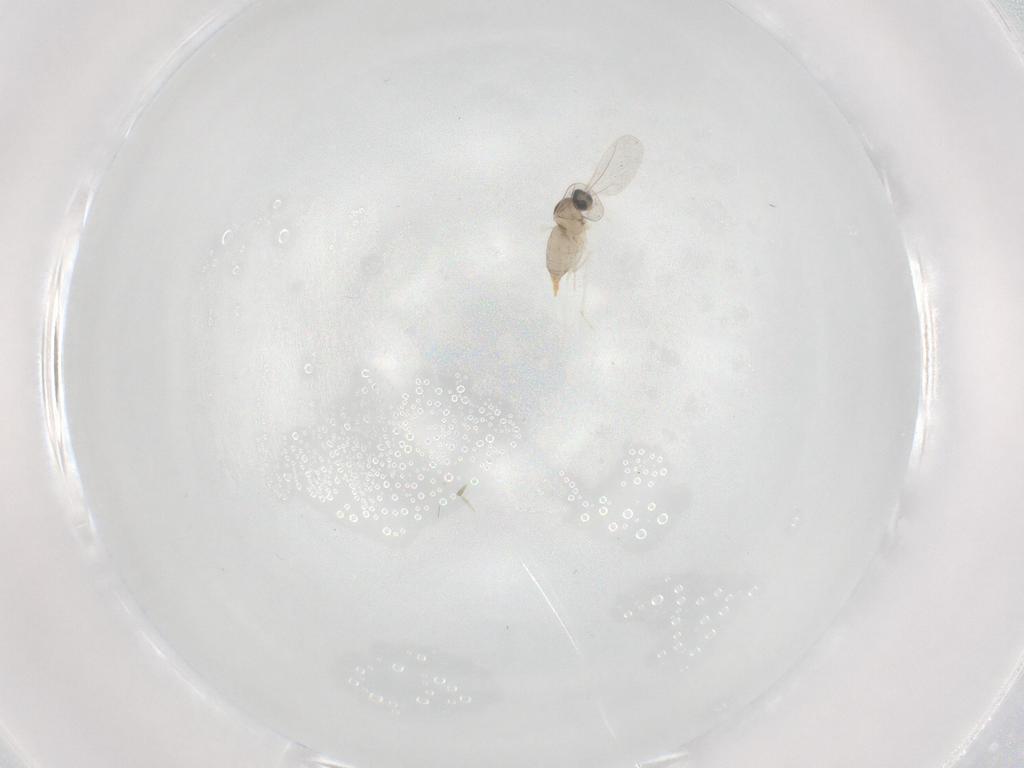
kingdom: Animalia
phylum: Arthropoda
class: Insecta
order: Diptera
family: Cecidomyiidae
